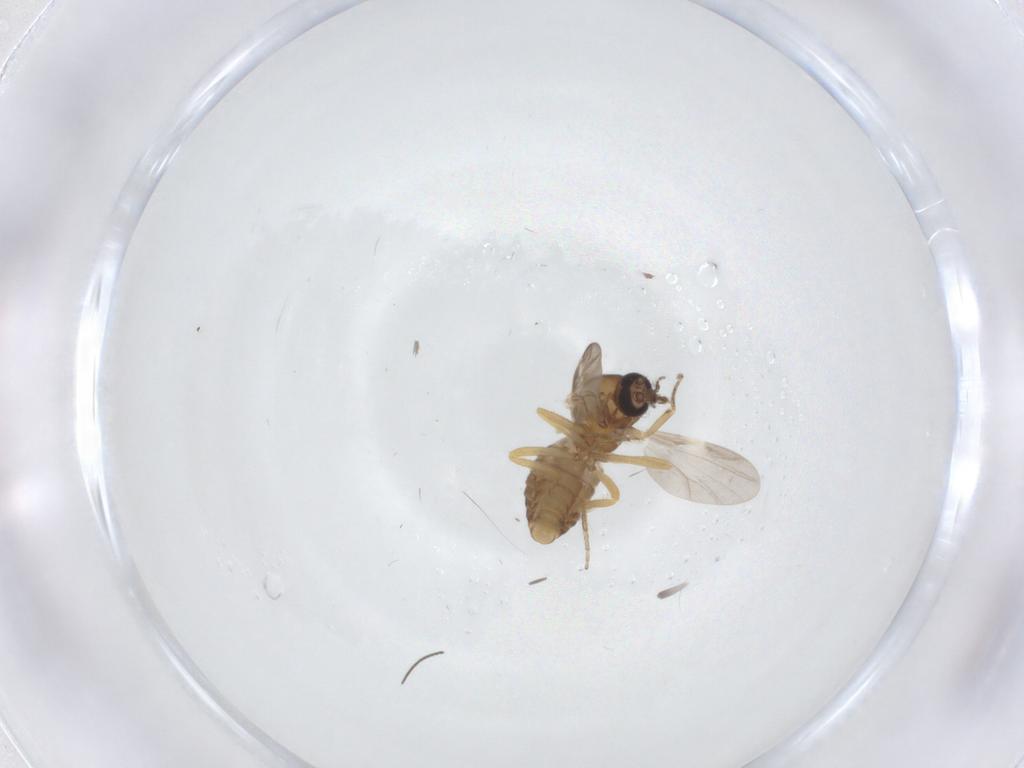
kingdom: Animalia
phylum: Arthropoda
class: Insecta
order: Diptera
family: Ceratopogonidae
